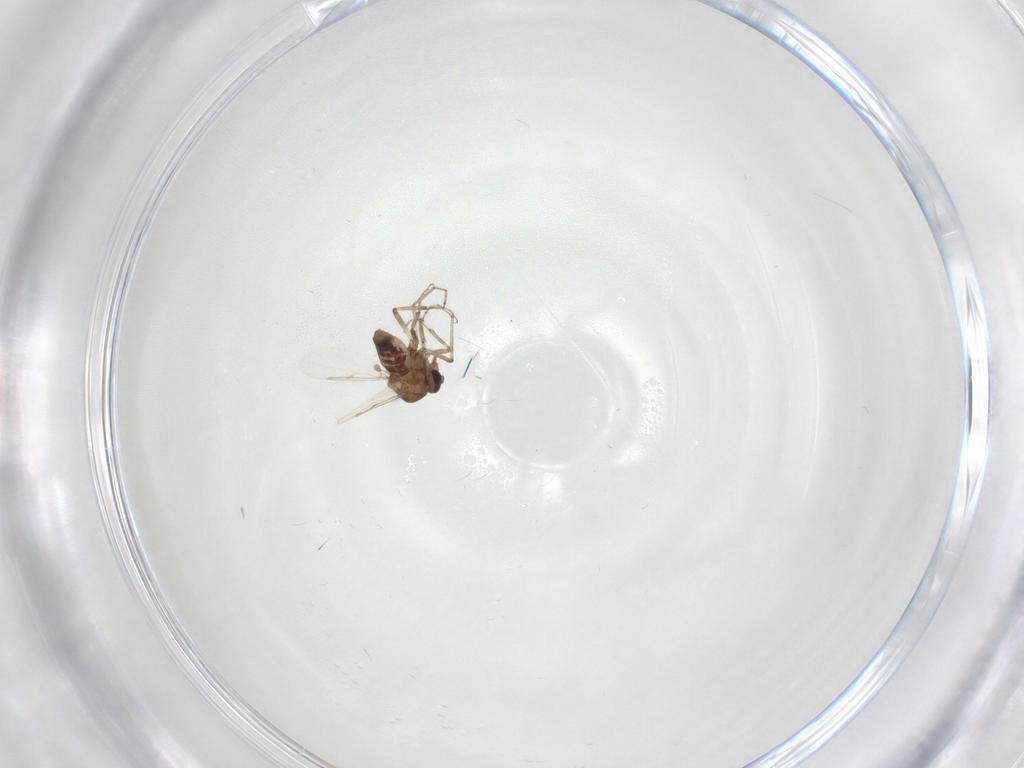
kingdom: Animalia
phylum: Arthropoda
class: Insecta
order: Diptera
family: Ceratopogonidae
